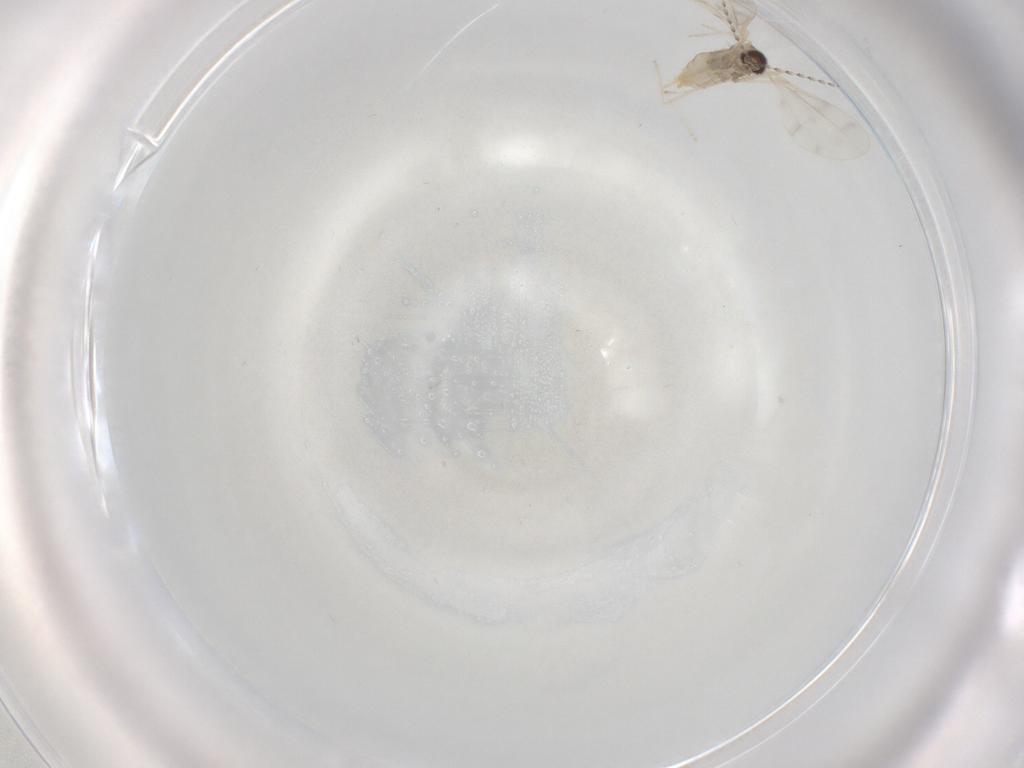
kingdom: Animalia
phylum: Arthropoda
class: Insecta
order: Diptera
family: Cecidomyiidae
